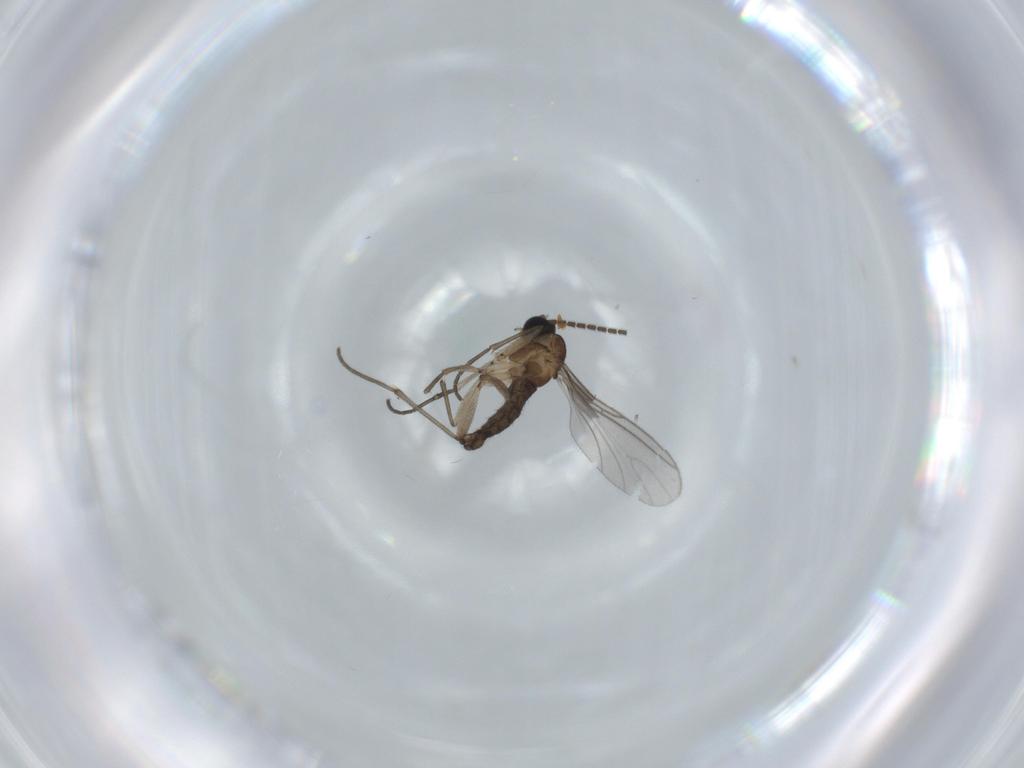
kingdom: Animalia
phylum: Arthropoda
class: Insecta
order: Diptera
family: Sciaridae
